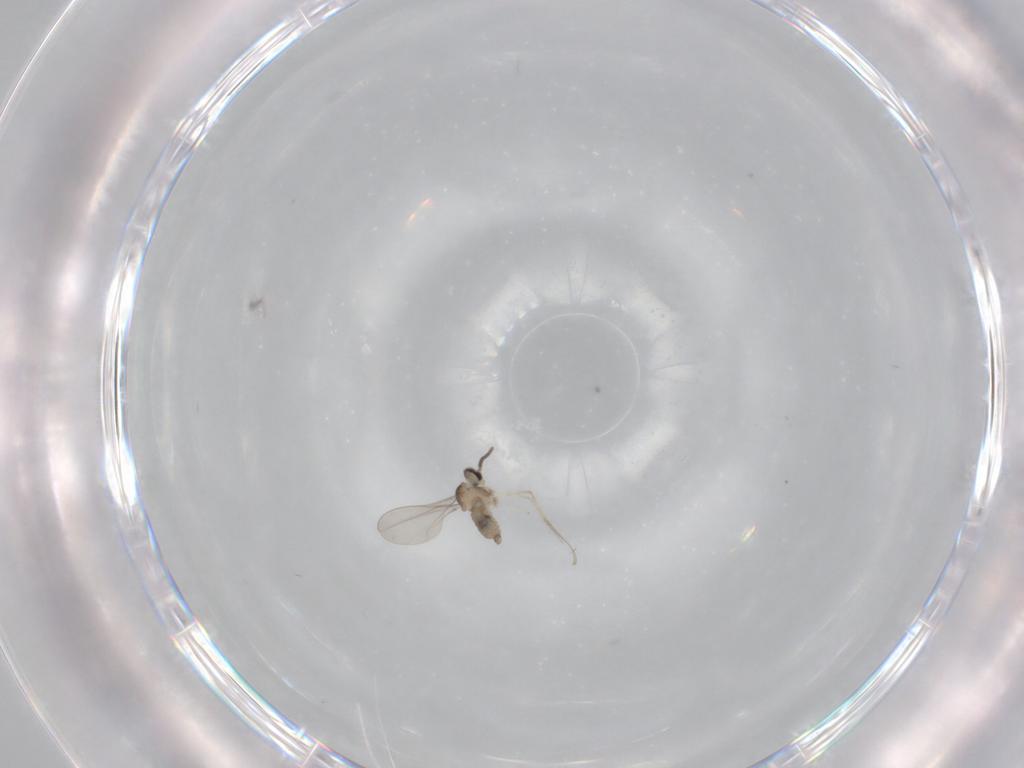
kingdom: Animalia
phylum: Arthropoda
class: Insecta
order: Diptera
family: Cecidomyiidae
